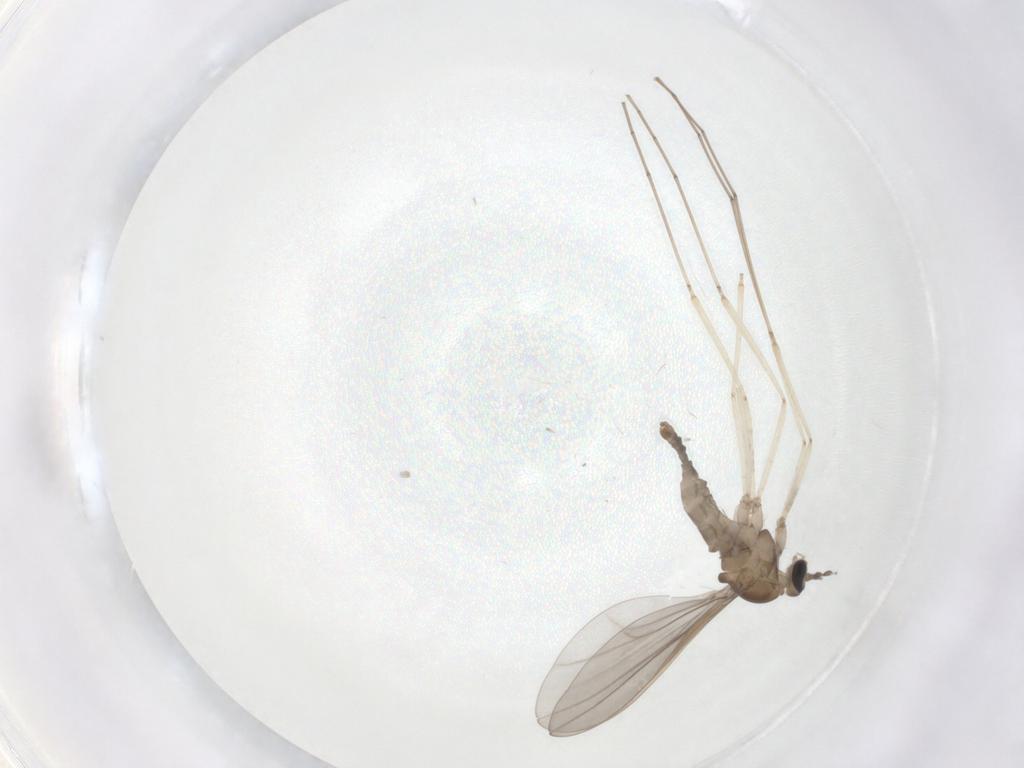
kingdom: Animalia
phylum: Arthropoda
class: Insecta
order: Diptera
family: Cecidomyiidae
